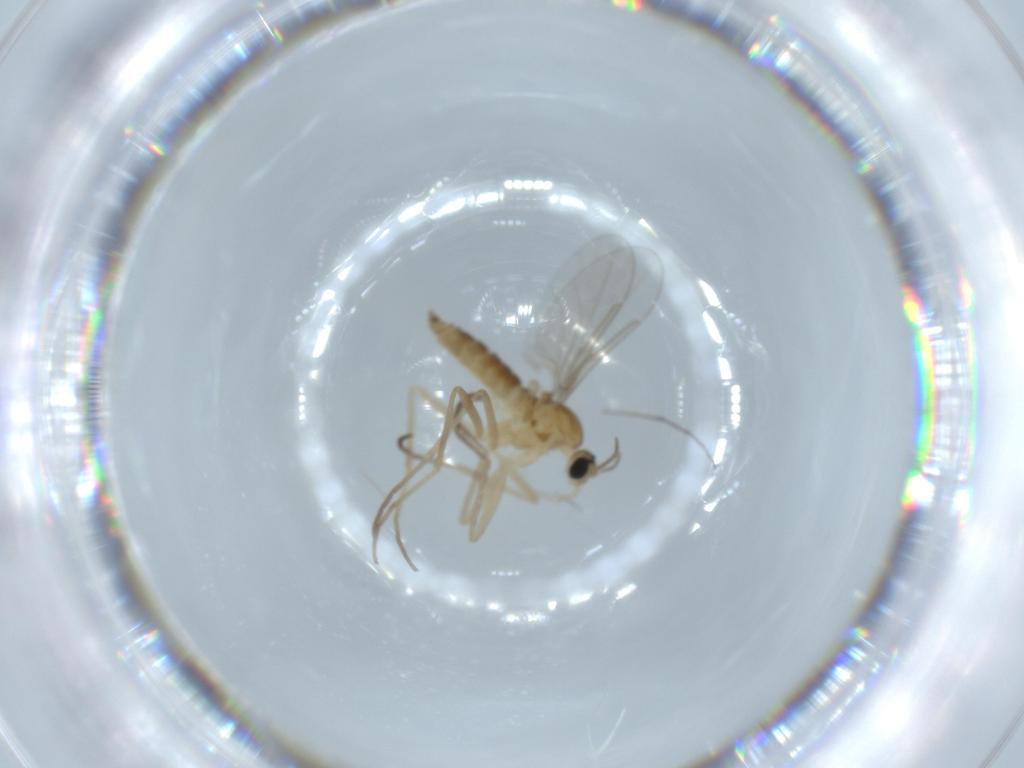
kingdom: Animalia
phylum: Arthropoda
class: Insecta
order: Diptera
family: Cecidomyiidae
